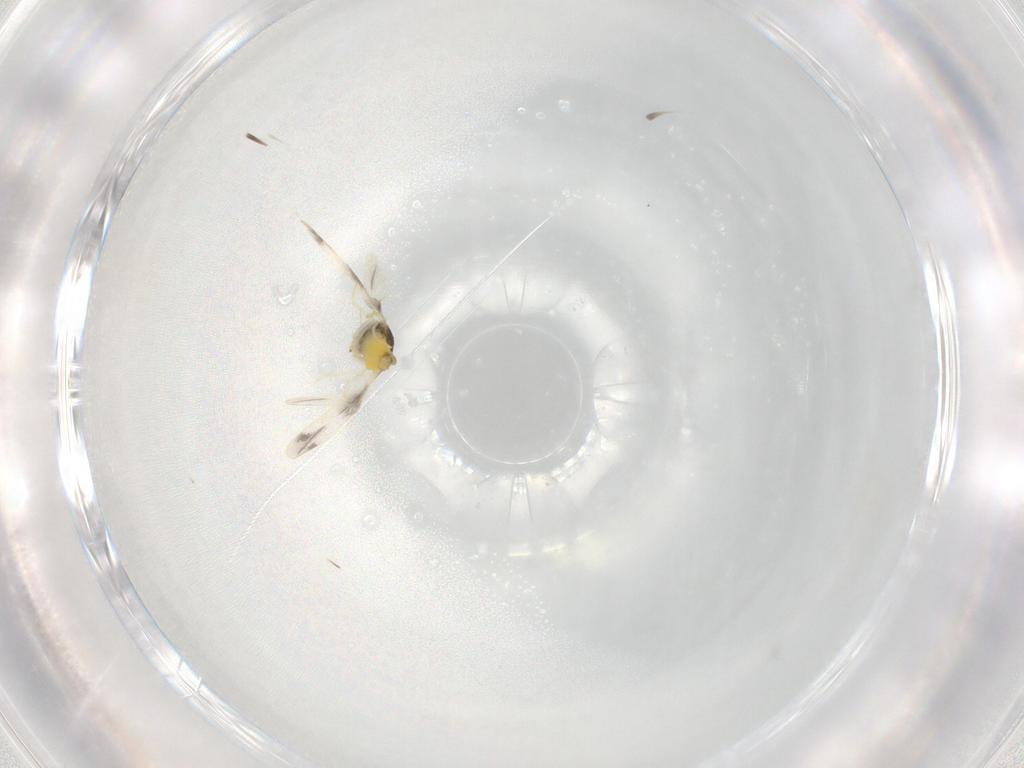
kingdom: Animalia
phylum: Arthropoda
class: Insecta
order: Hemiptera
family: Aleyrodidae
